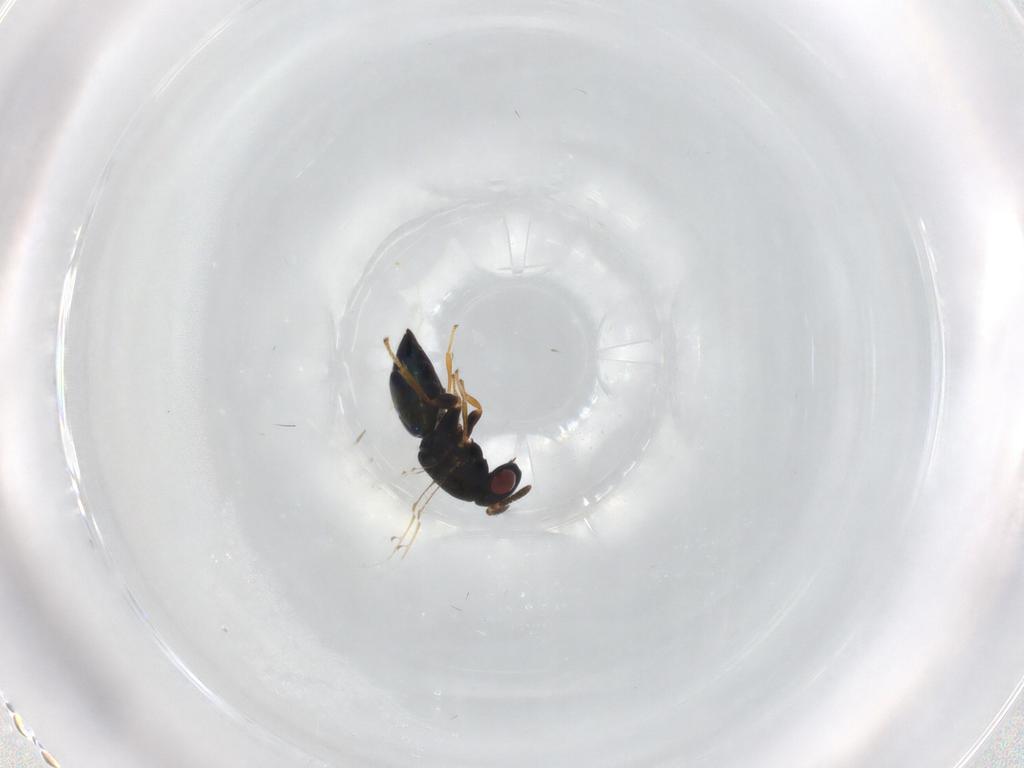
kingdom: Animalia
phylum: Arthropoda
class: Insecta
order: Hymenoptera
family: Agaonidae
